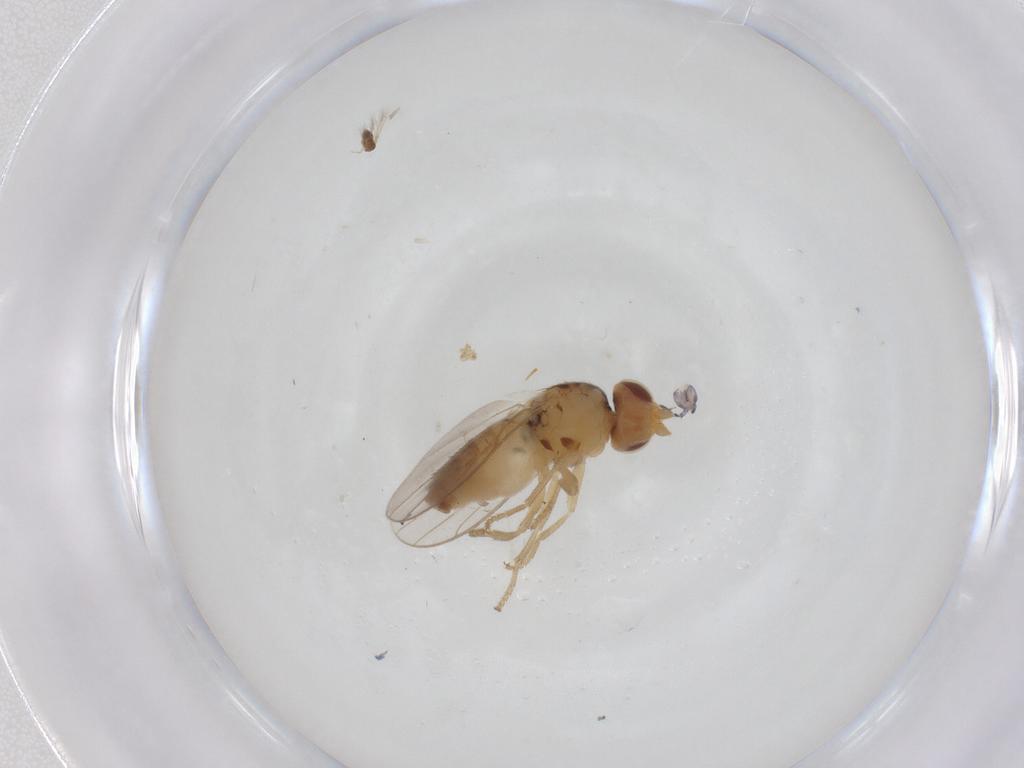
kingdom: Animalia
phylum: Arthropoda
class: Insecta
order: Diptera
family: Chloropidae
